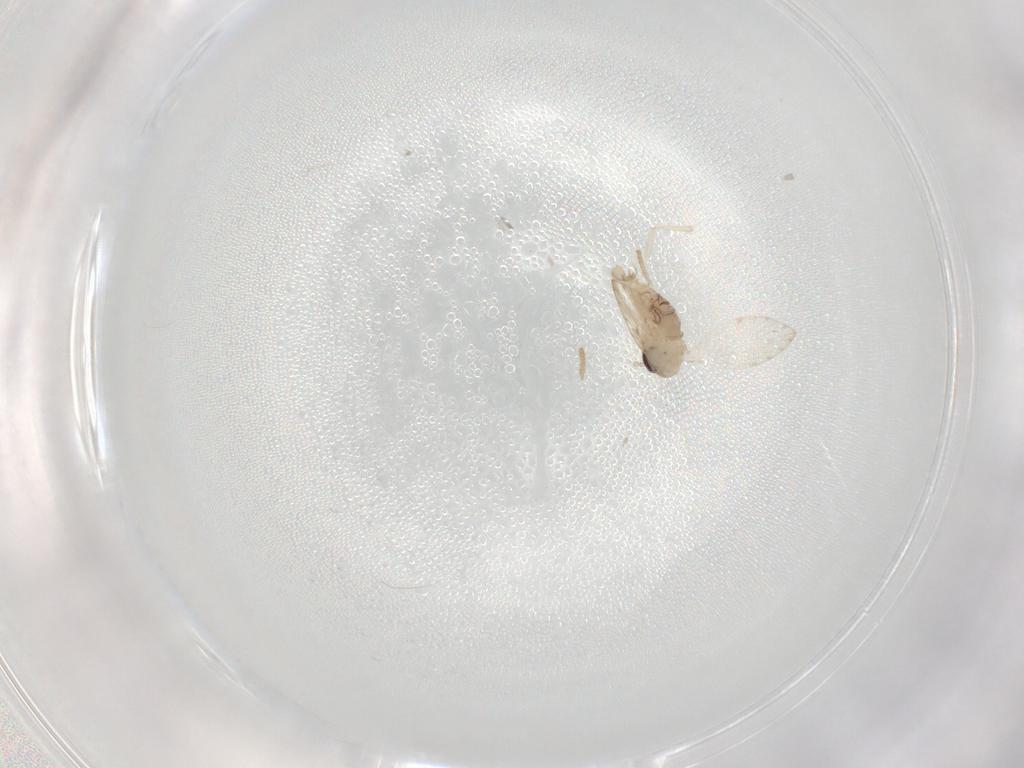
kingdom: Animalia
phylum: Arthropoda
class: Insecta
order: Diptera
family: Psychodidae
